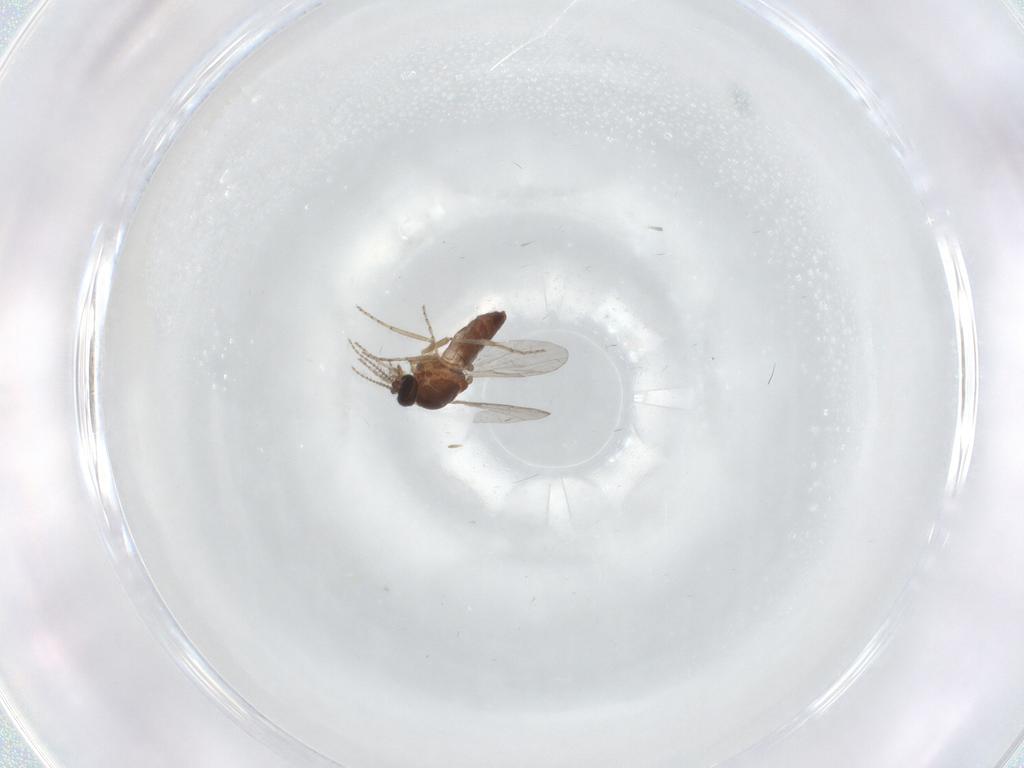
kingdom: Animalia
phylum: Arthropoda
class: Insecta
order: Diptera
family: Ceratopogonidae
